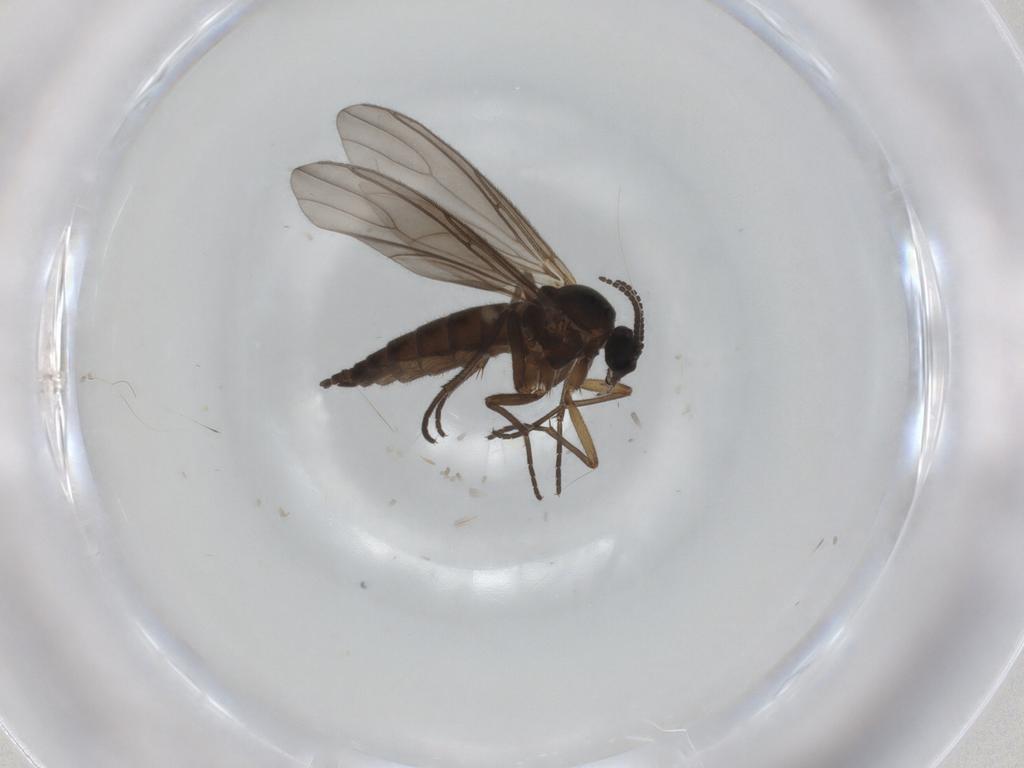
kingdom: Animalia
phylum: Arthropoda
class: Insecta
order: Diptera
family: Sciaridae
